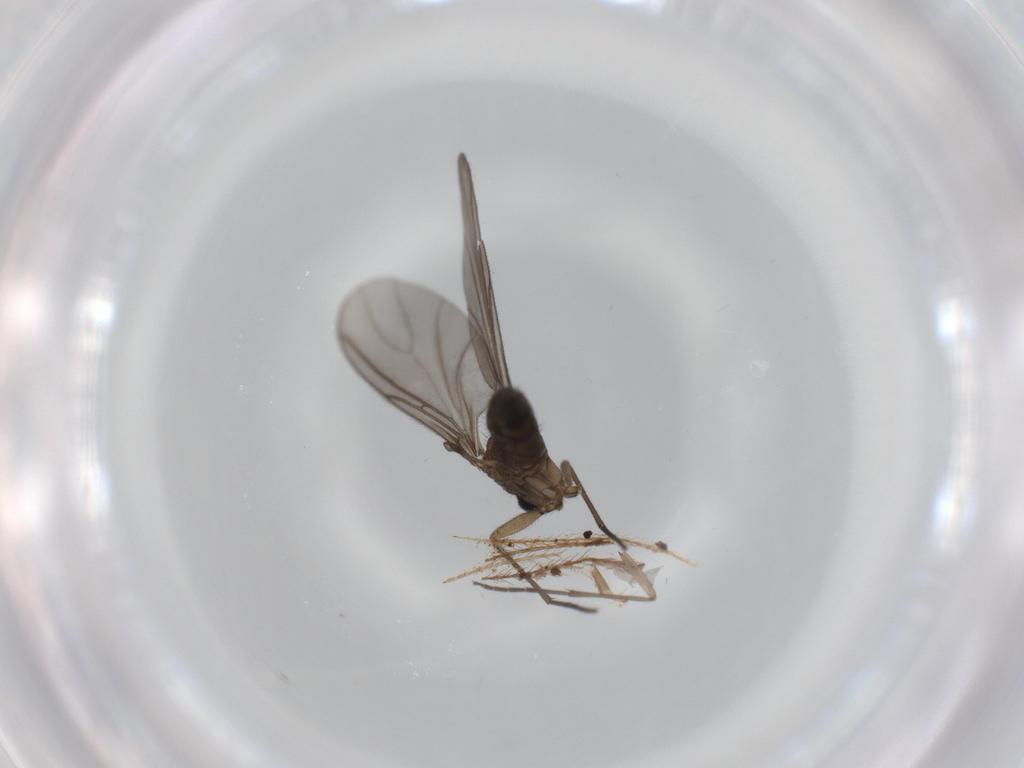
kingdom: Animalia
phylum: Arthropoda
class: Insecta
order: Diptera
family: Sciaridae
